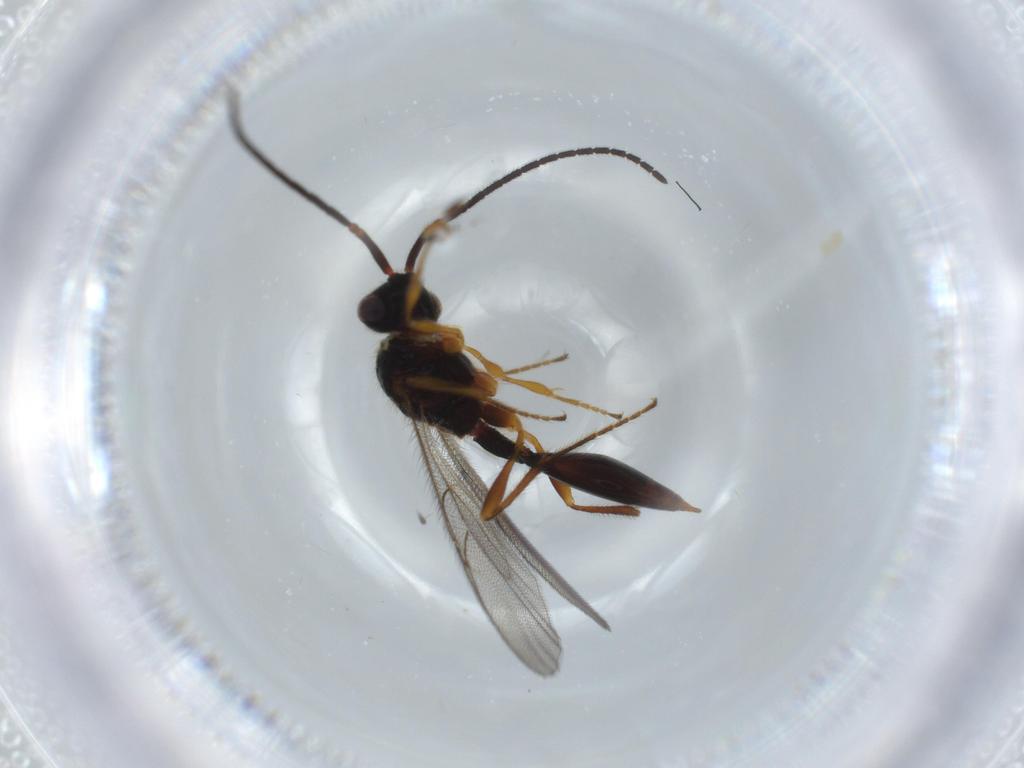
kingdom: Animalia
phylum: Arthropoda
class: Insecta
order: Hymenoptera
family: Formicidae
